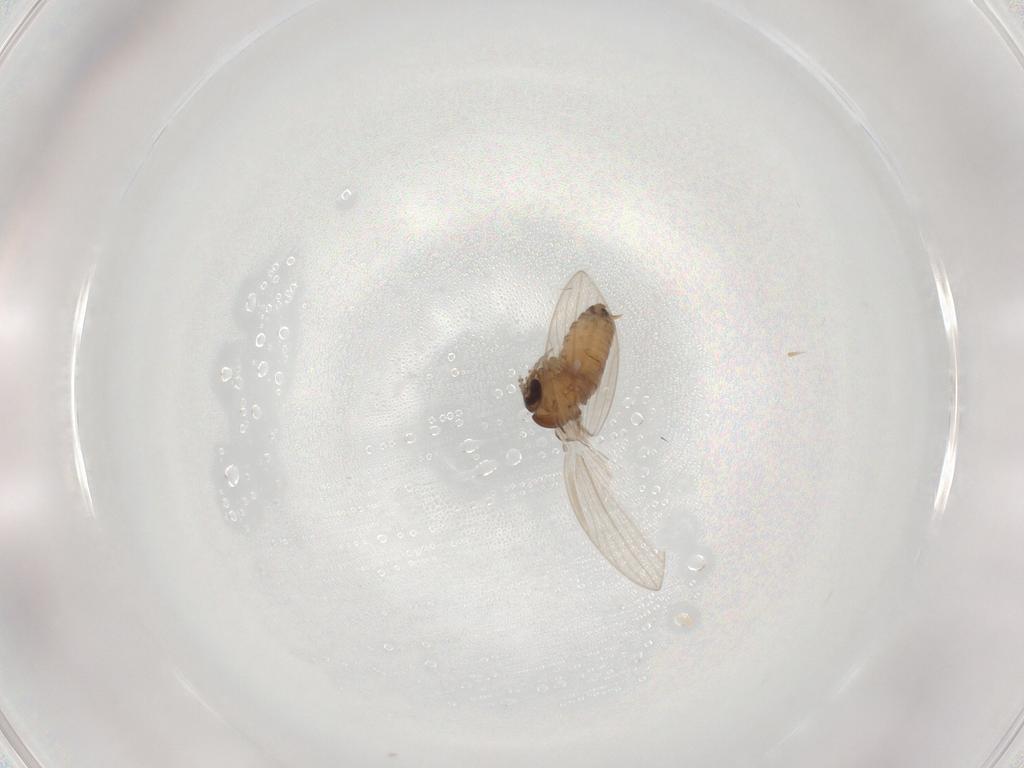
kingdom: Animalia
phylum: Arthropoda
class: Insecta
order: Diptera
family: Psychodidae
